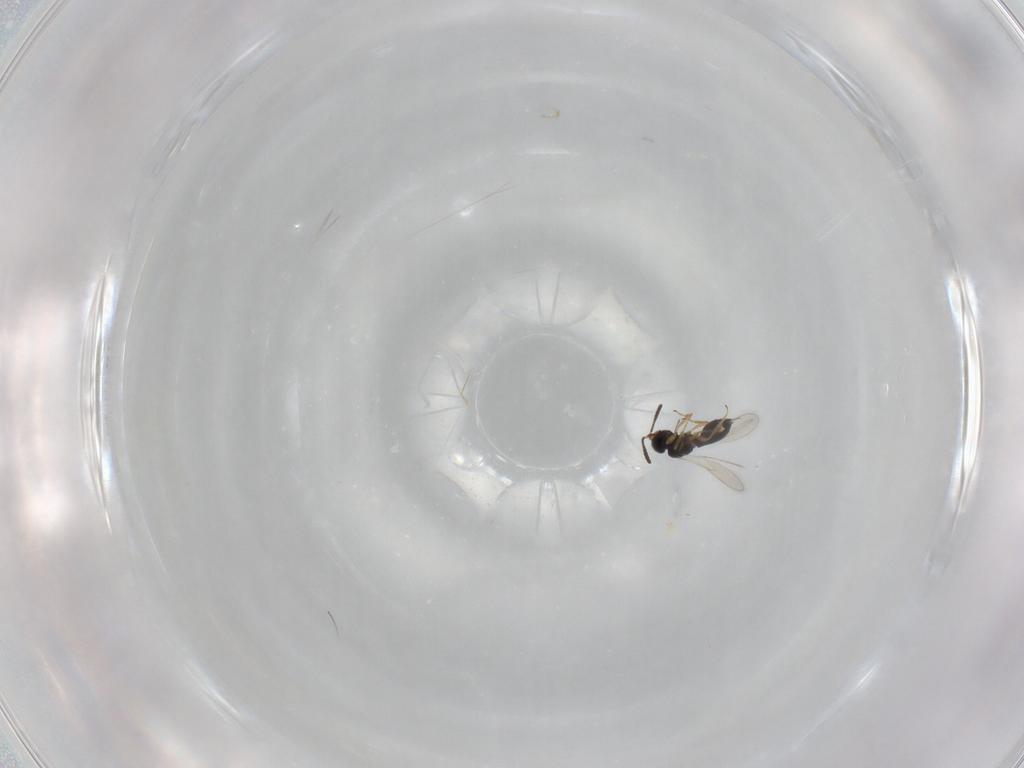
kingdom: Animalia
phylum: Arthropoda
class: Insecta
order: Hymenoptera
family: Scelionidae
